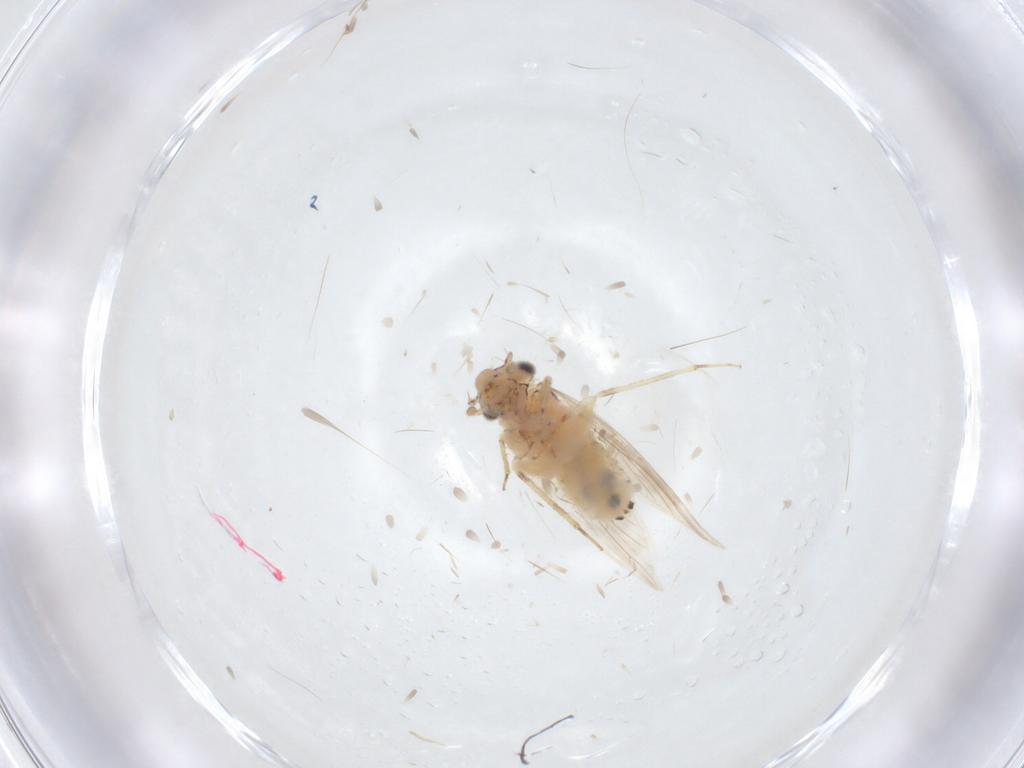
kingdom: Animalia
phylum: Arthropoda
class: Insecta
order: Psocodea
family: Lepidopsocidae
